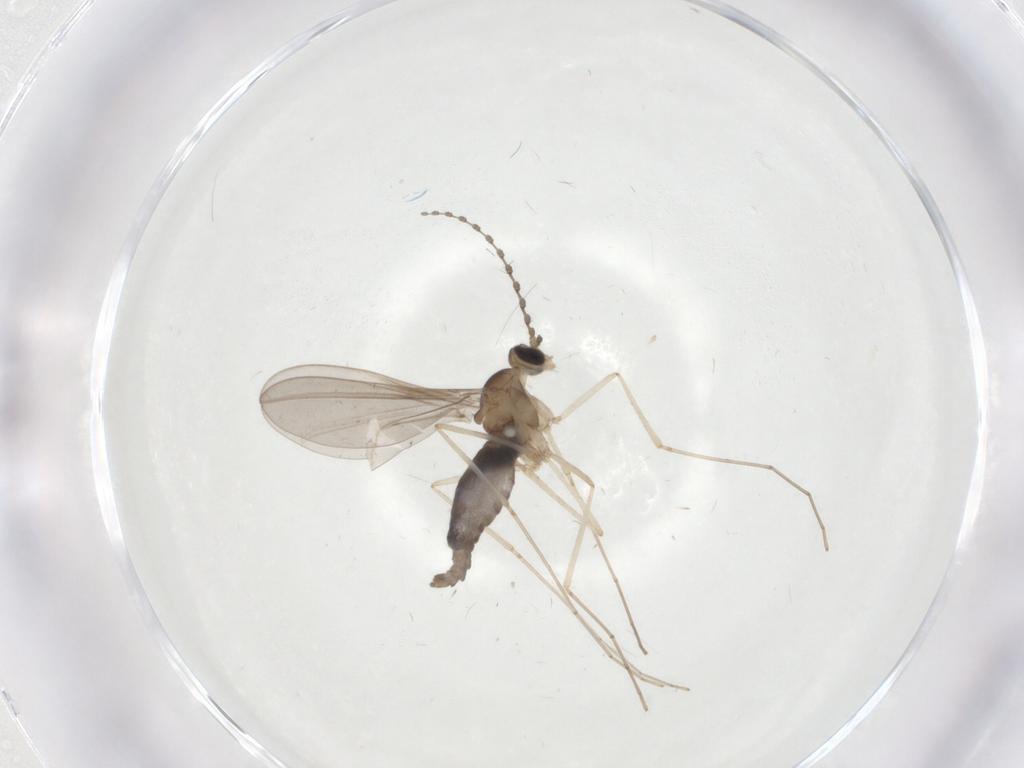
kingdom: Animalia
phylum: Arthropoda
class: Insecta
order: Diptera
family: Cecidomyiidae
